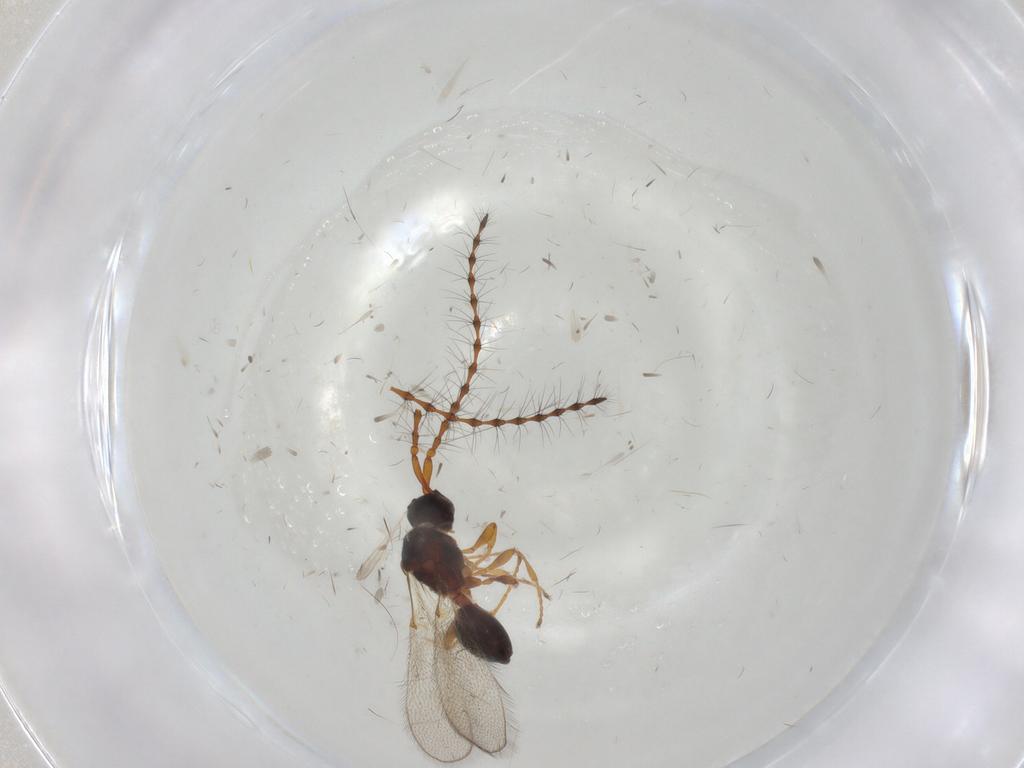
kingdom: Animalia
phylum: Arthropoda
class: Insecta
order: Hymenoptera
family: Diapriidae
